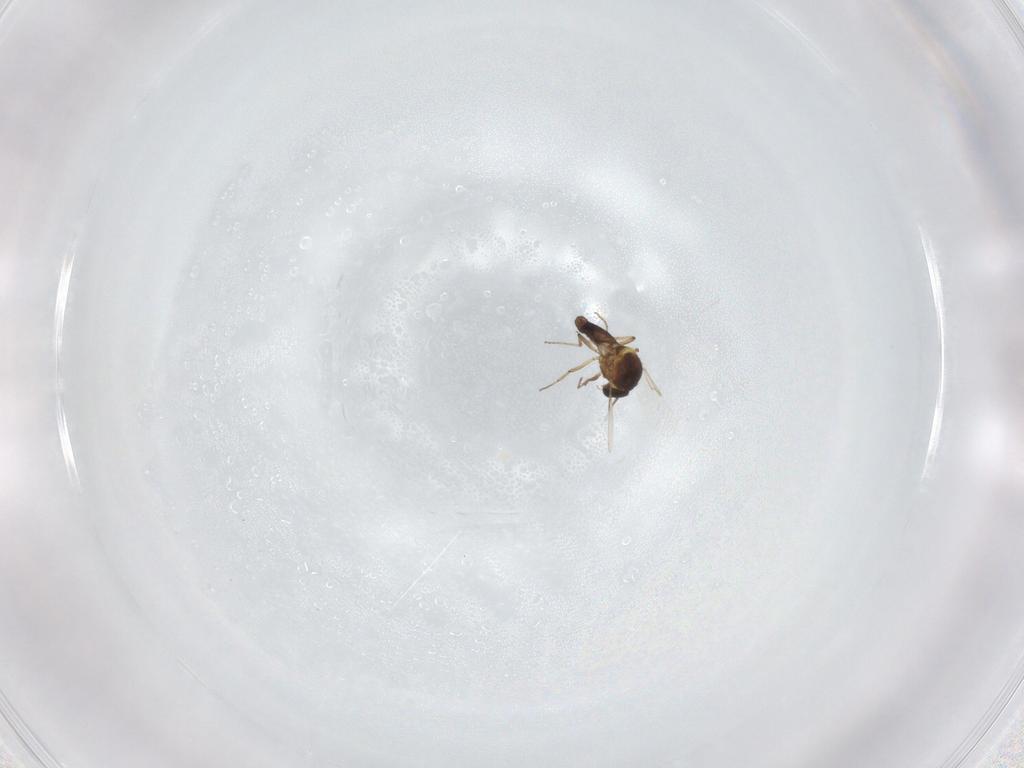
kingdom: Animalia
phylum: Arthropoda
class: Insecta
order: Diptera
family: Ceratopogonidae
